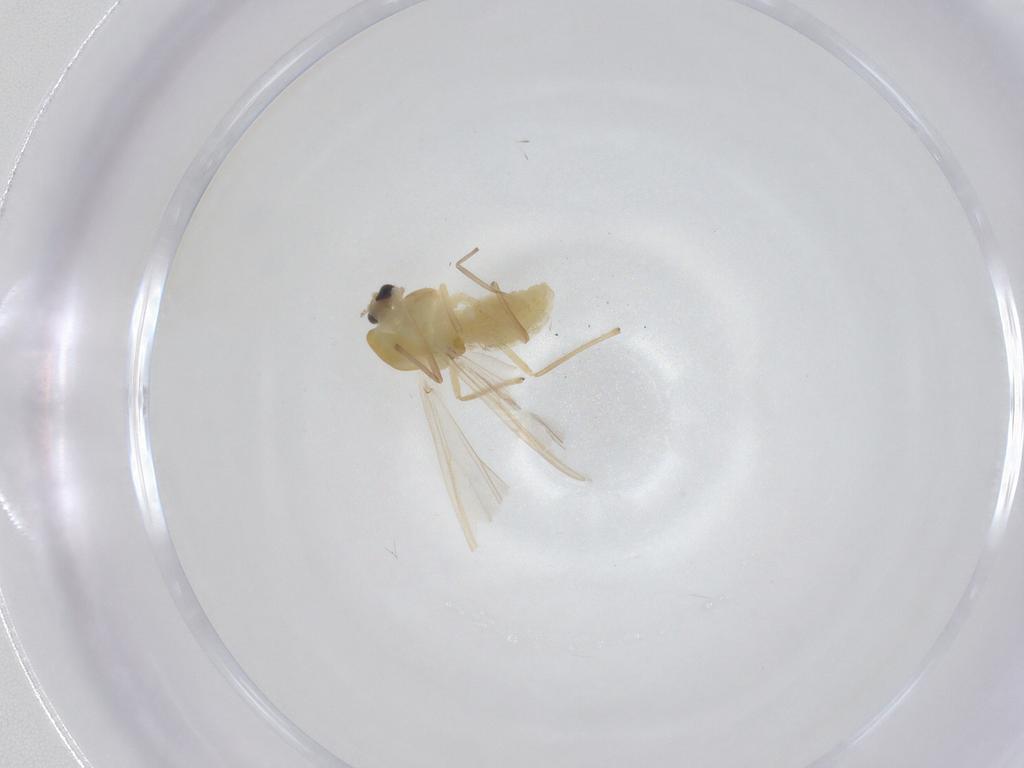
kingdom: Animalia
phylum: Arthropoda
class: Insecta
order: Diptera
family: Chironomidae
